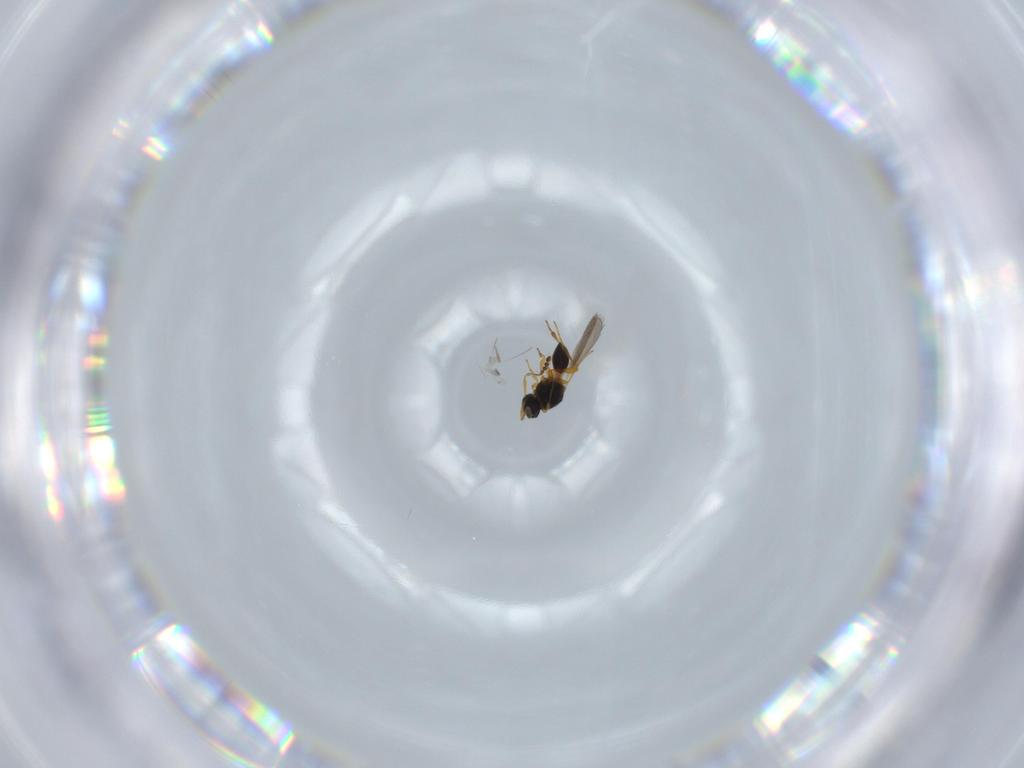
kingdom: Animalia
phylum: Arthropoda
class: Insecta
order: Hymenoptera
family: Platygastridae
